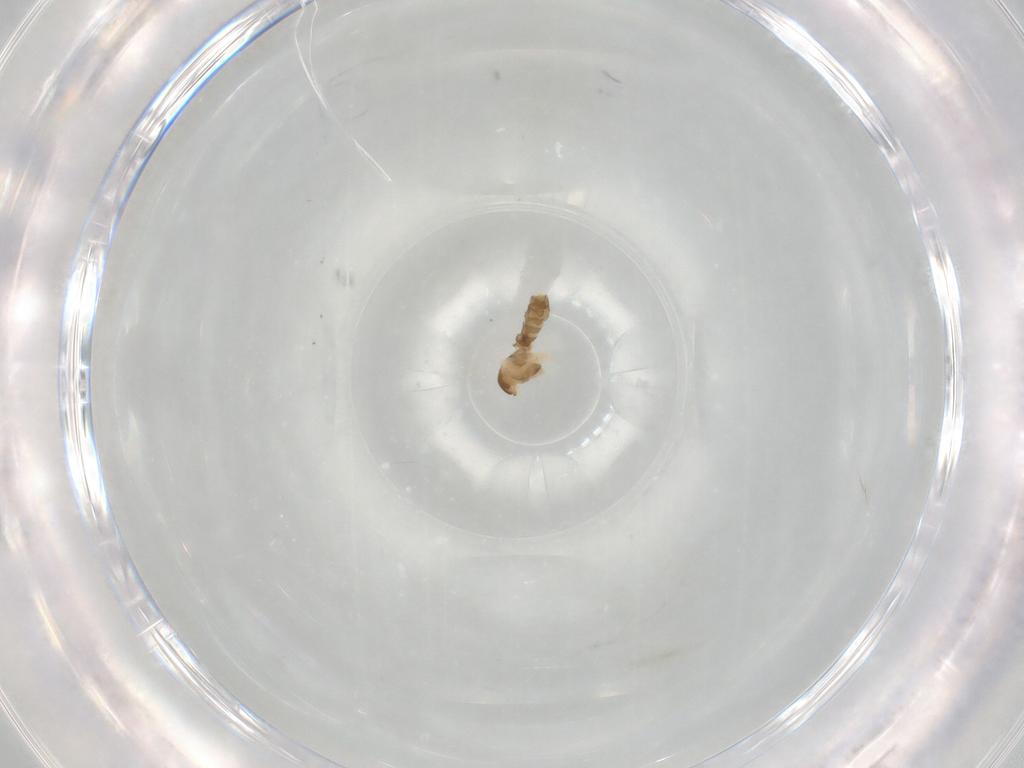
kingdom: Animalia
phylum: Arthropoda
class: Insecta
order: Diptera
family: Cecidomyiidae
